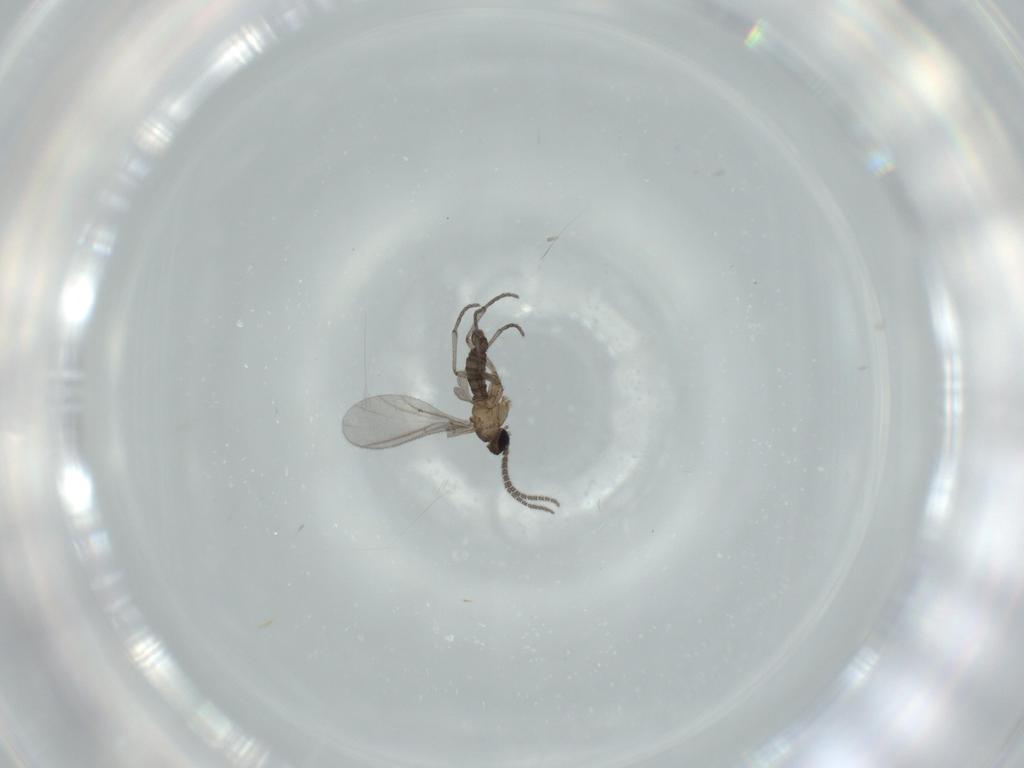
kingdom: Animalia
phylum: Arthropoda
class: Insecta
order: Diptera
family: Sciaridae
